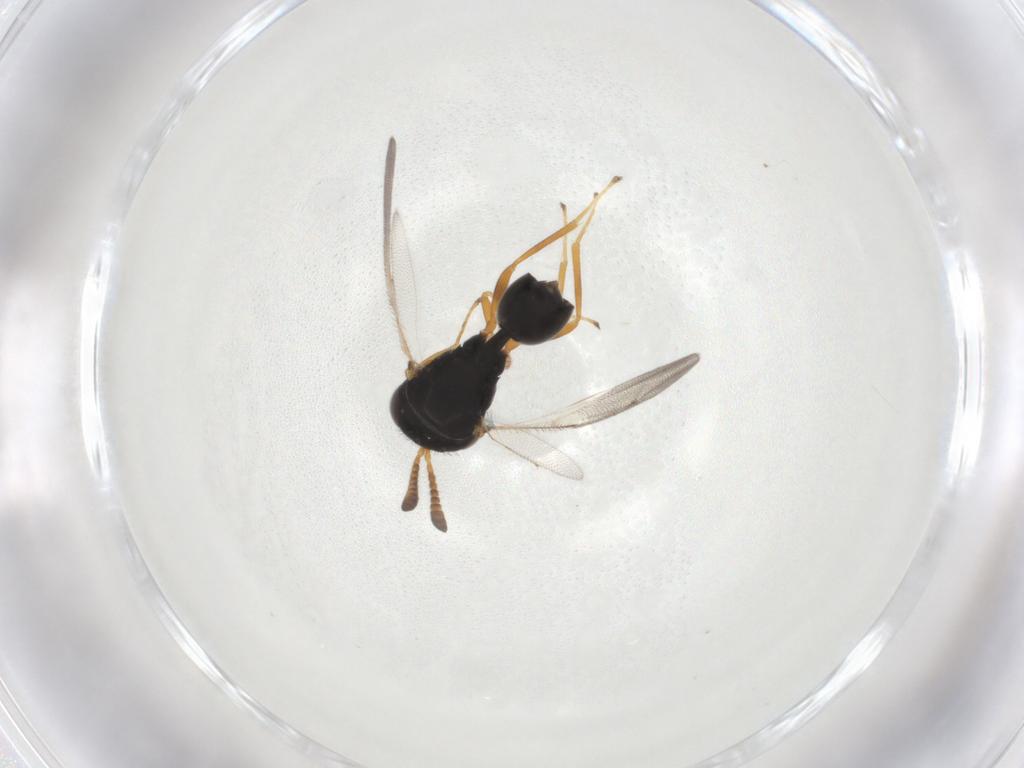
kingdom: Animalia
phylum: Arthropoda
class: Insecta
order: Hymenoptera
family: Pteromalidae
